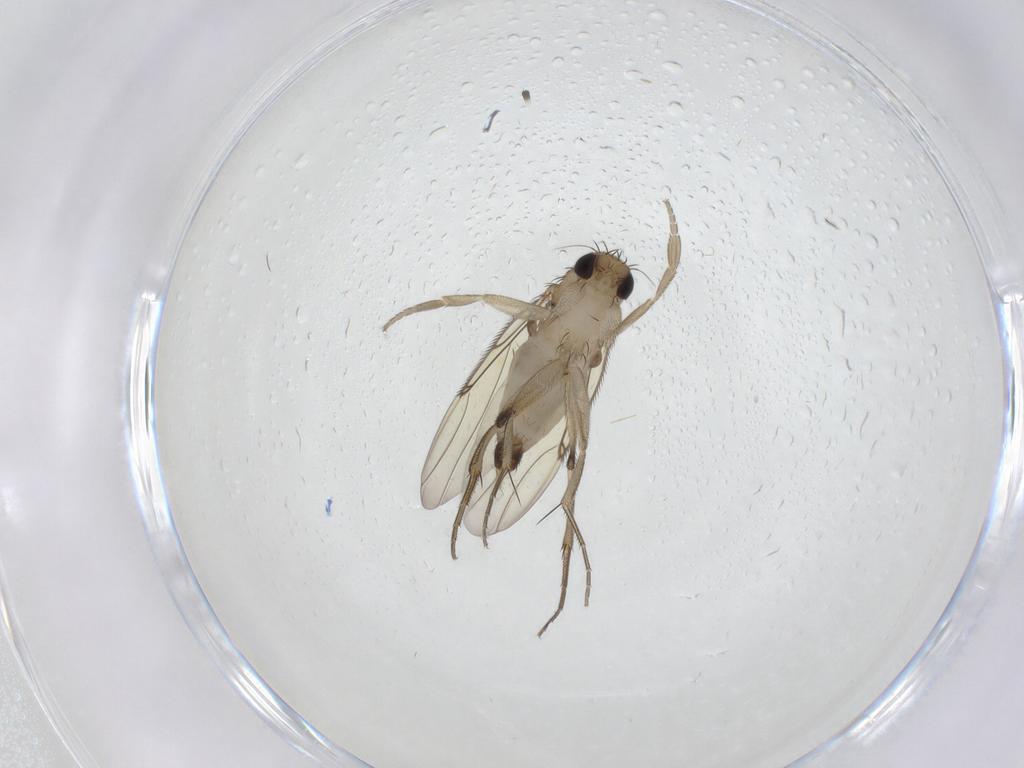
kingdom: Animalia
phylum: Arthropoda
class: Insecta
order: Diptera
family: Phoridae
